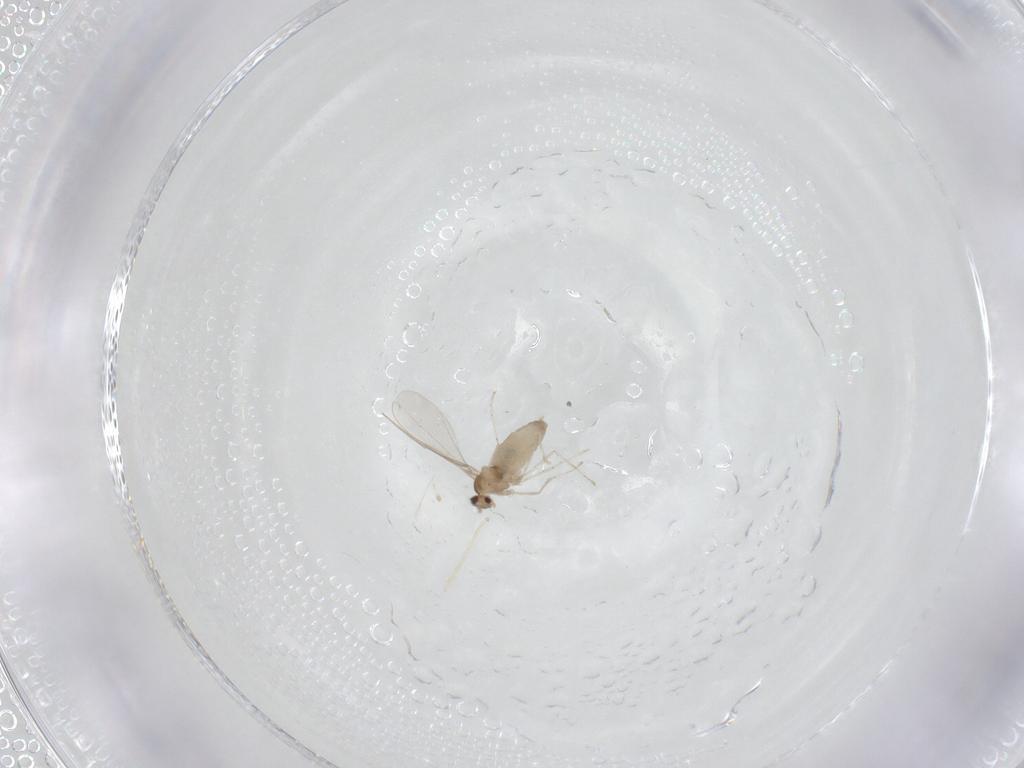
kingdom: Animalia
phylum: Arthropoda
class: Insecta
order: Diptera
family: Cecidomyiidae
